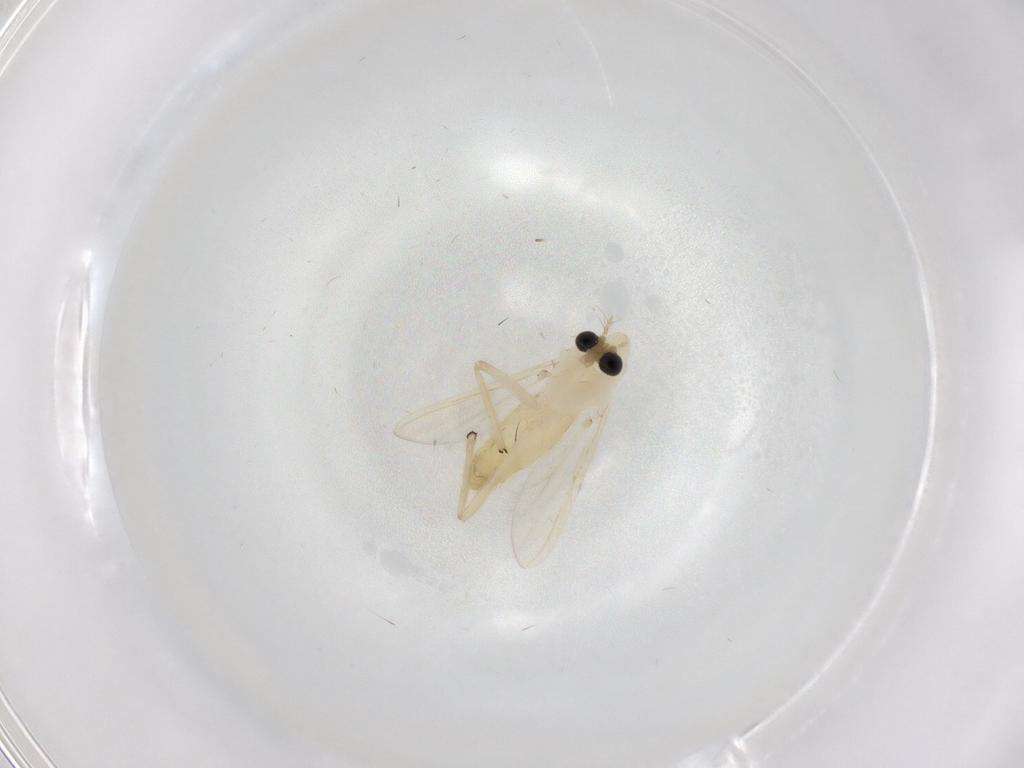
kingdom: Animalia
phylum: Arthropoda
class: Insecta
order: Diptera
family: Chironomidae
